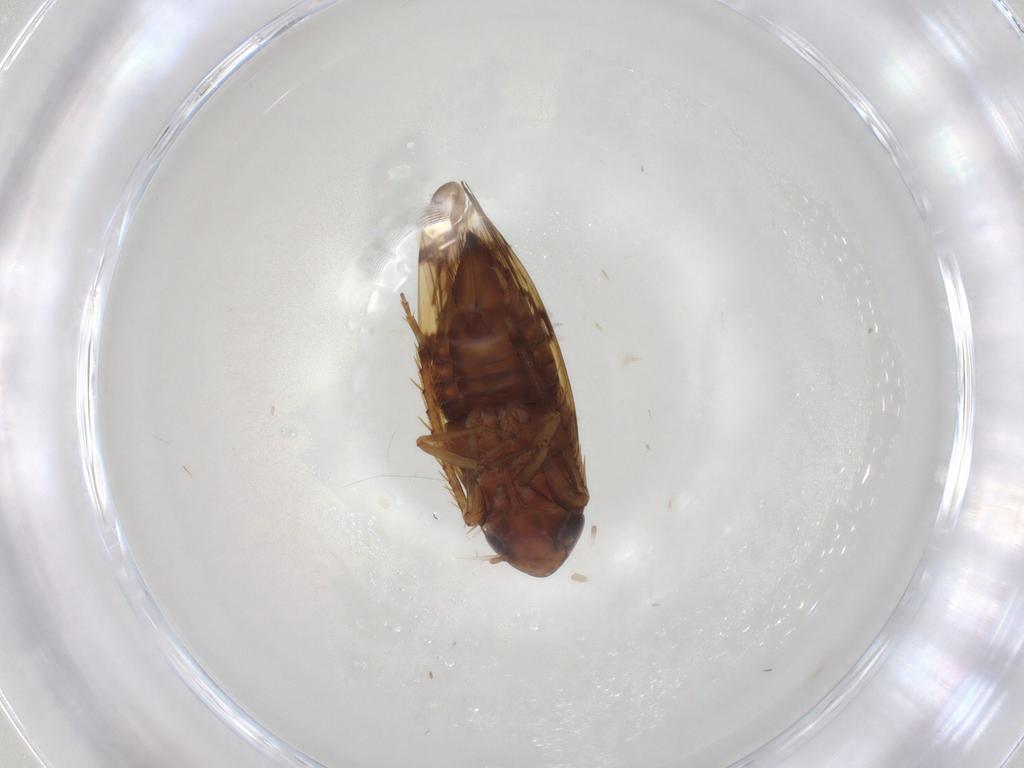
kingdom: Animalia
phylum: Arthropoda
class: Insecta
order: Hemiptera
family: Cicadellidae
